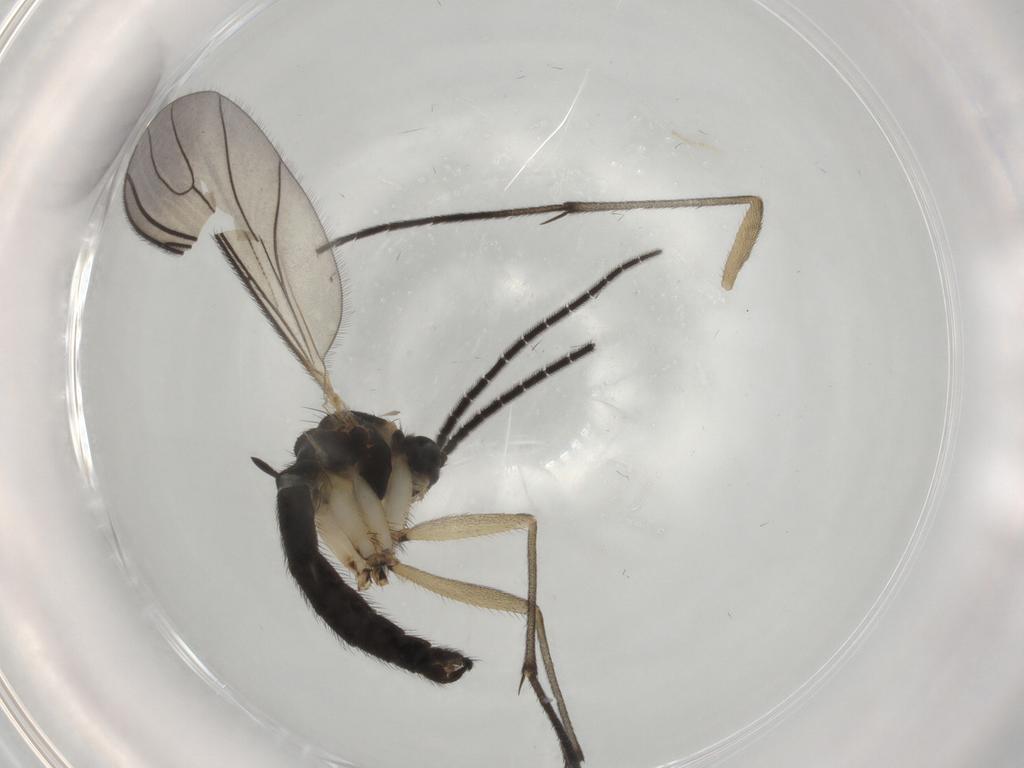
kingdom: Animalia
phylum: Arthropoda
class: Insecta
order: Diptera
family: Sciaridae
